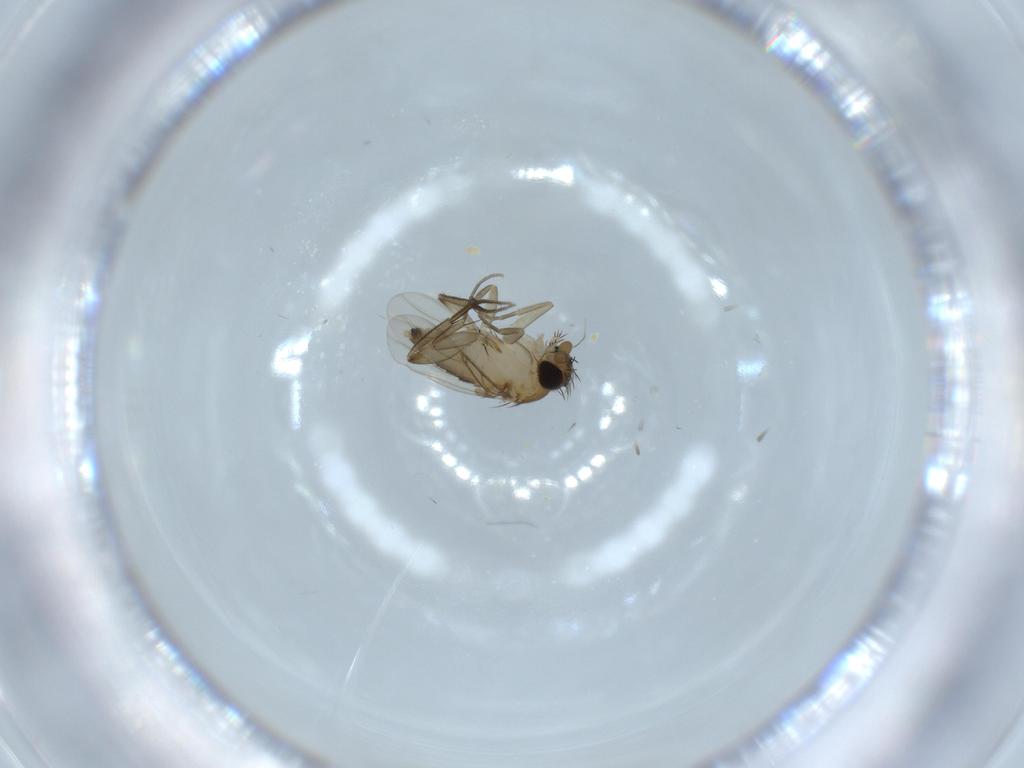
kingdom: Animalia
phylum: Arthropoda
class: Insecta
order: Diptera
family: Phoridae
